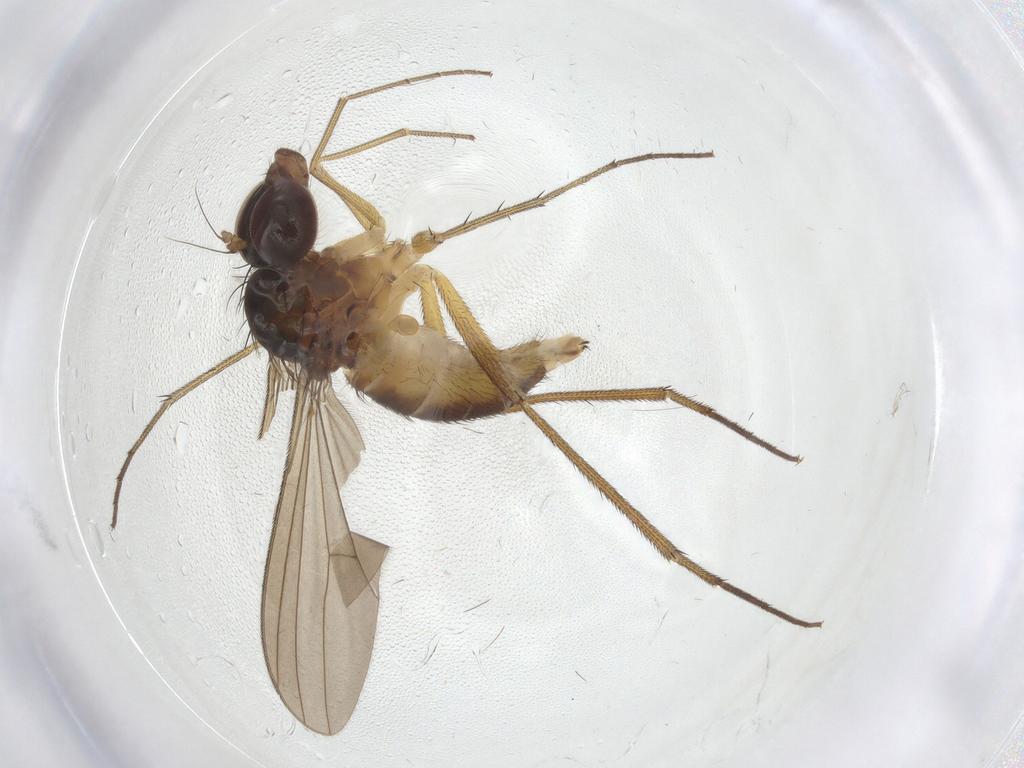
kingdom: Animalia
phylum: Arthropoda
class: Insecta
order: Diptera
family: Dolichopodidae
